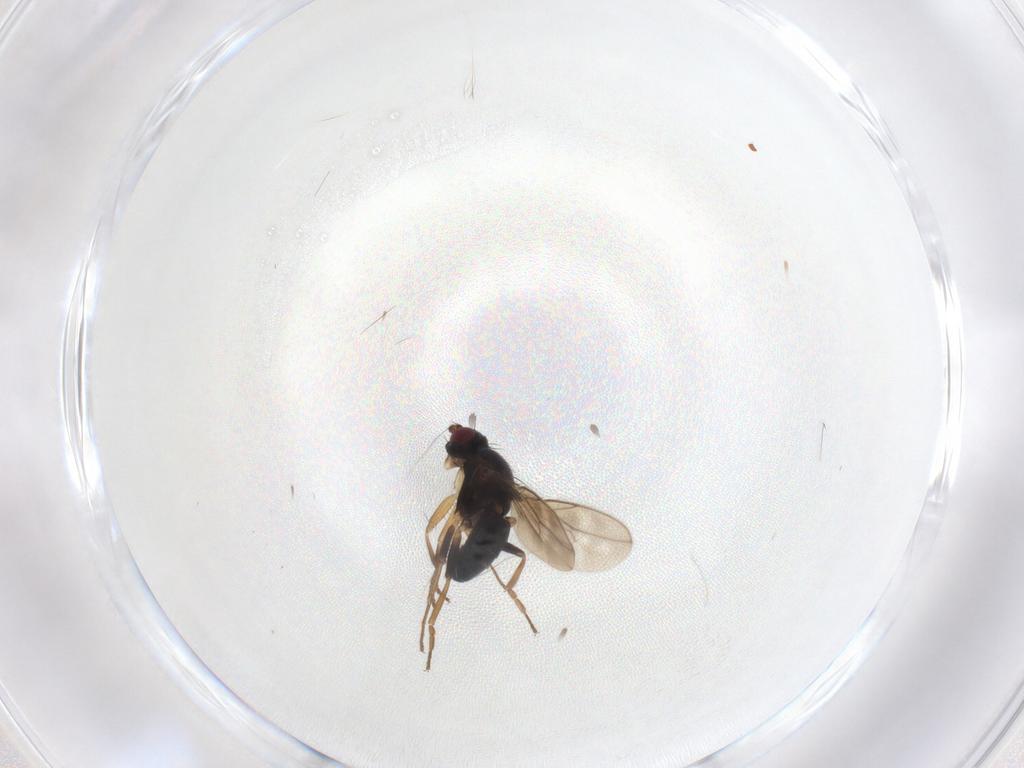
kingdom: Animalia
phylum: Arthropoda
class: Insecta
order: Diptera
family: Sphaeroceridae
